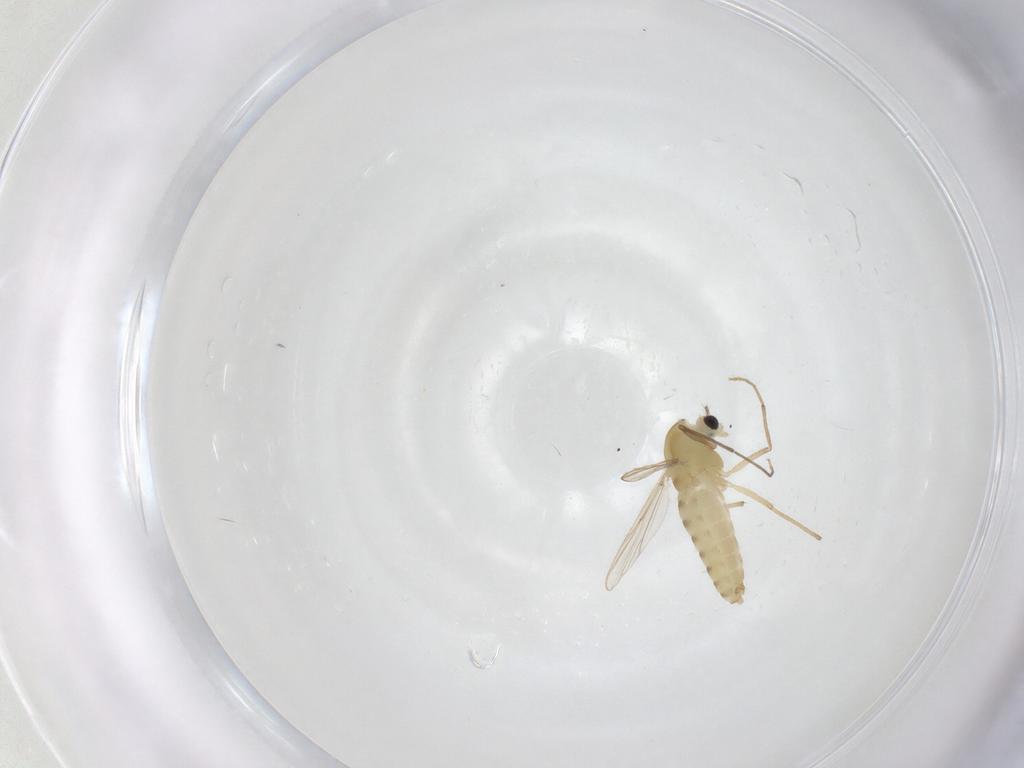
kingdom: Animalia
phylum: Arthropoda
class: Insecta
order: Diptera
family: Chironomidae
